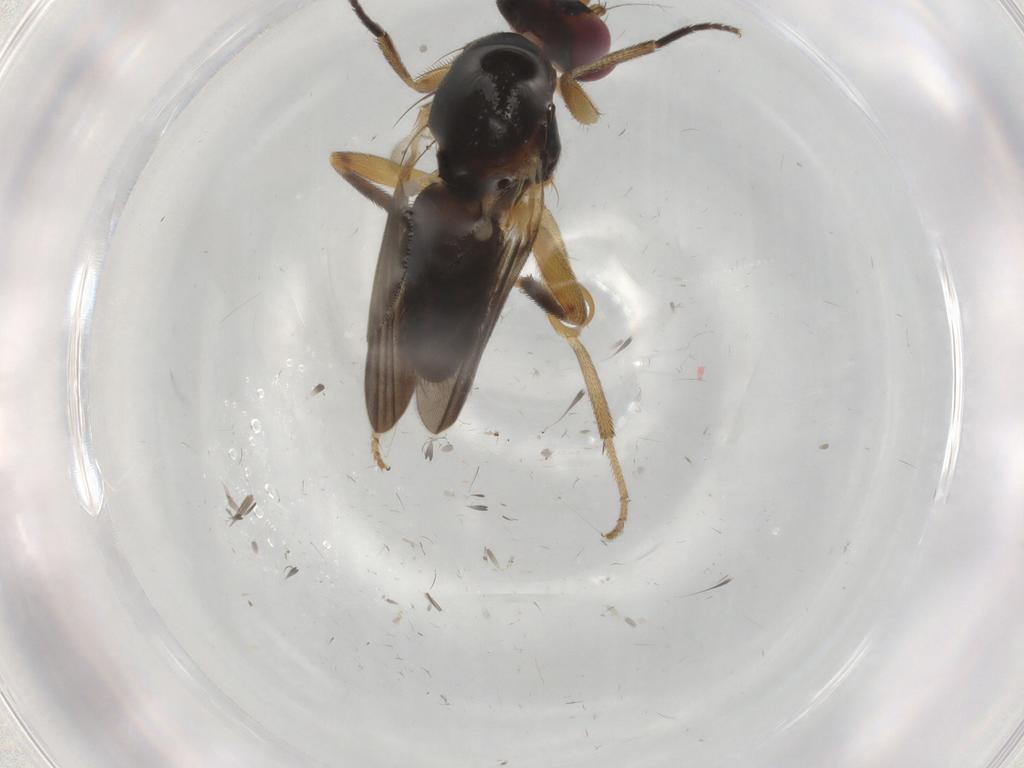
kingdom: Animalia
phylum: Arthropoda
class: Insecta
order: Diptera
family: Clusiidae
